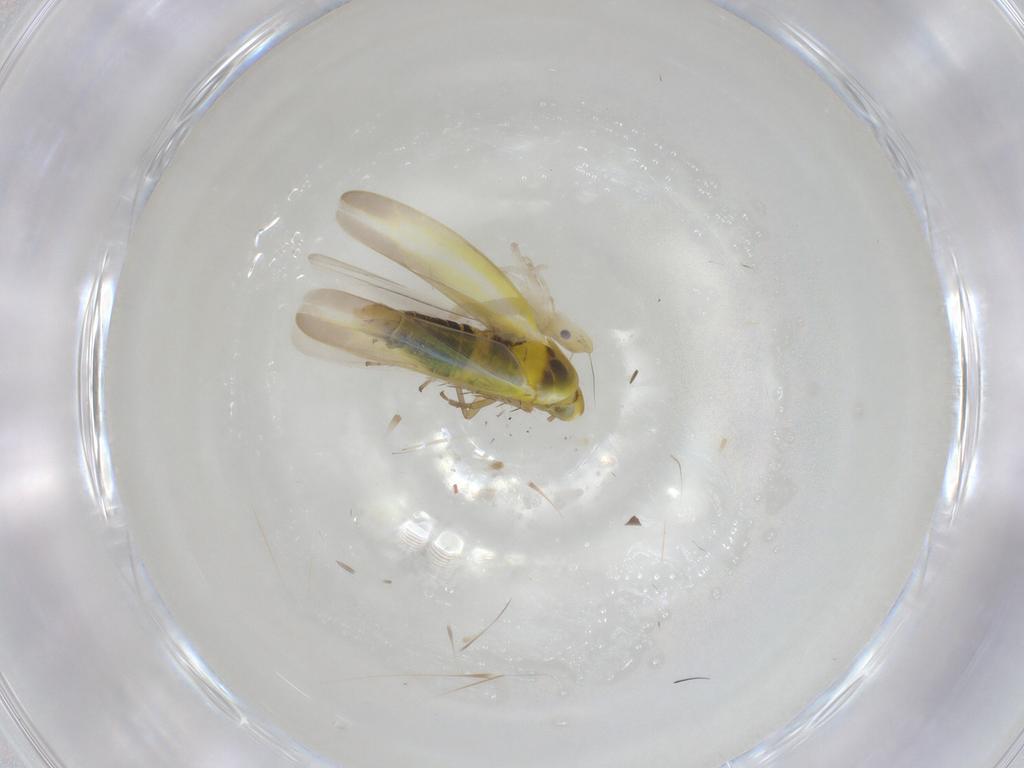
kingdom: Animalia
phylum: Arthropoda
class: Insecta
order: Hemiptera
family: Cicadellidae
